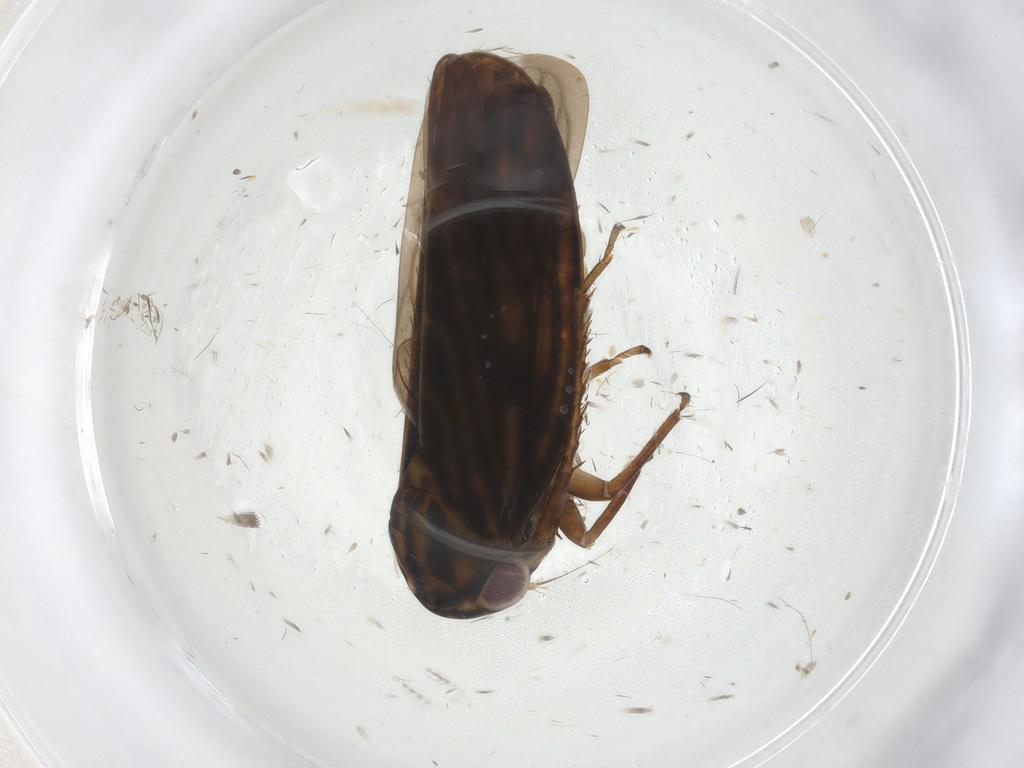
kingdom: Animalia
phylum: Arthropoda
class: Insecta
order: Hemiptera
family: Cicadellidae
